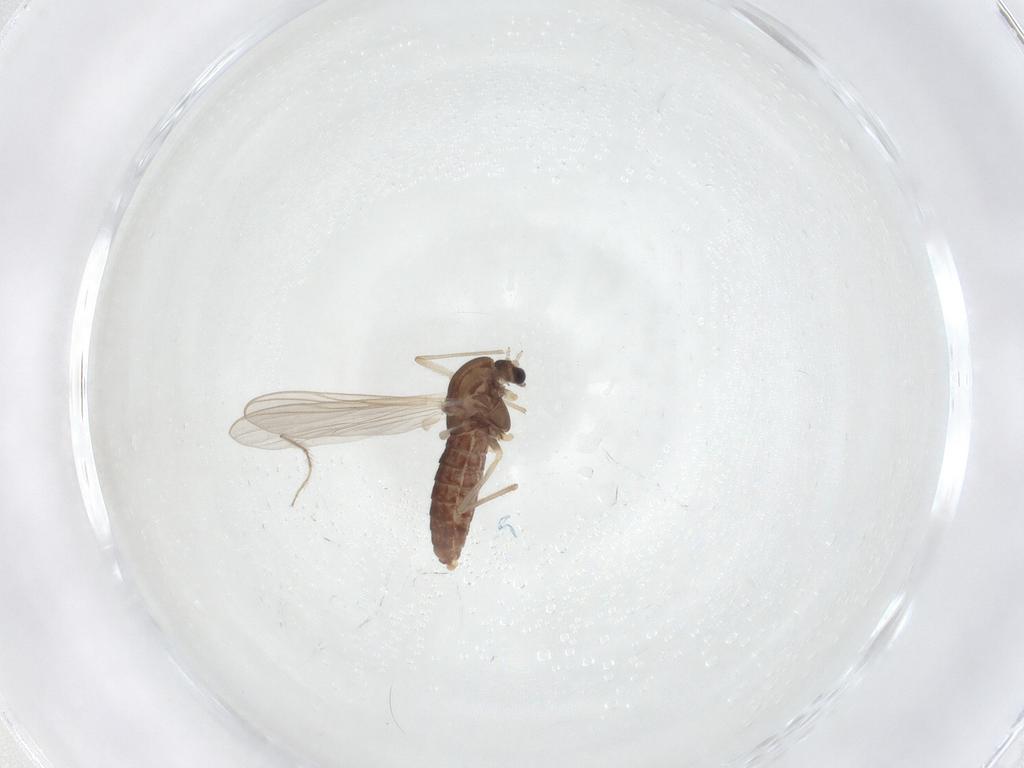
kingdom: Animalia
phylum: Arthropoda
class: Insecta
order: Diptera
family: Chironomidae
